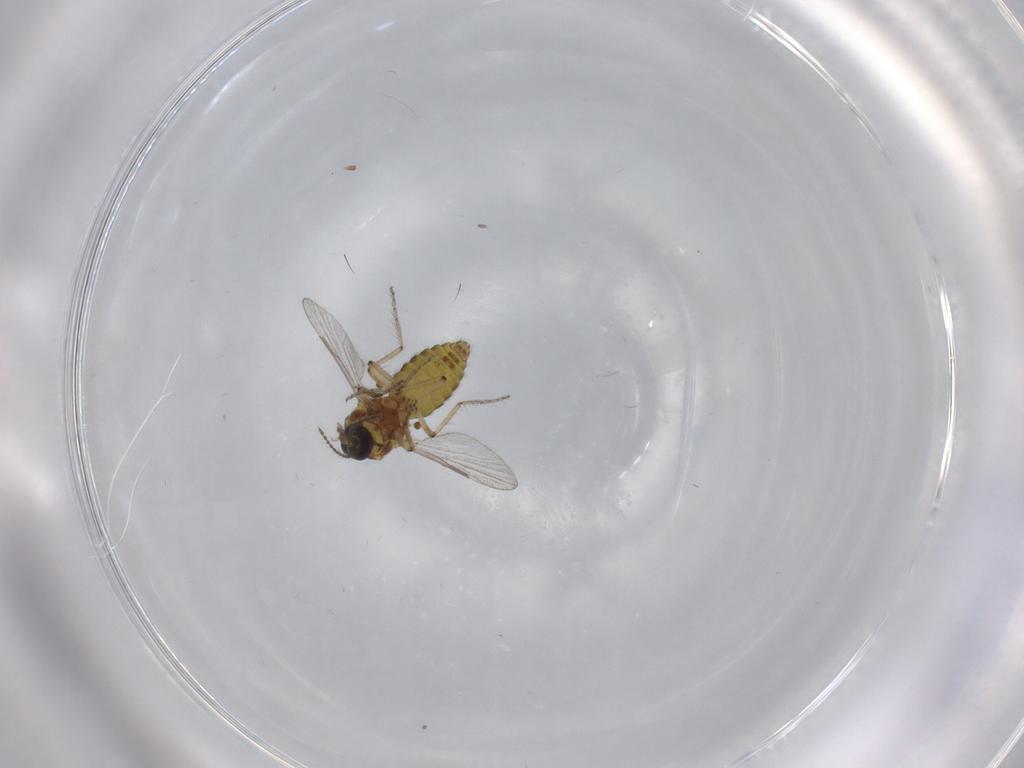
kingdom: Animalia
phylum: Arthropoda
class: Insecta
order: Diptera
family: Ceratopogonidae
